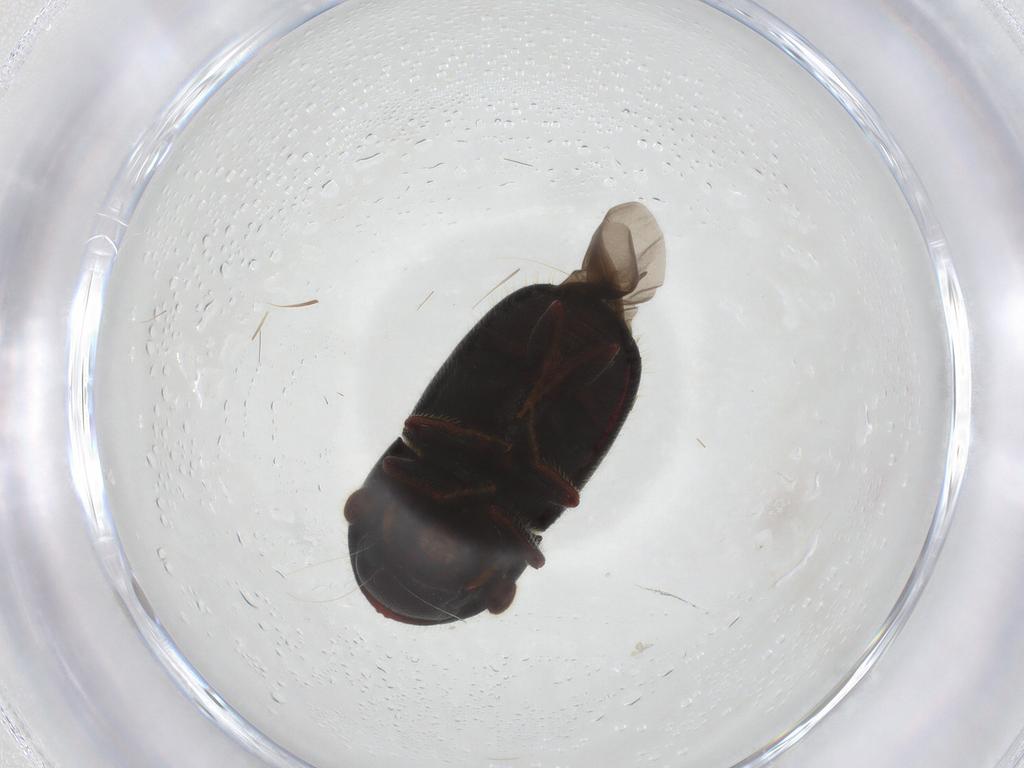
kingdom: Animalia
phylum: Arthropoda
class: Insecta
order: Coleoptera
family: Curculionidae
